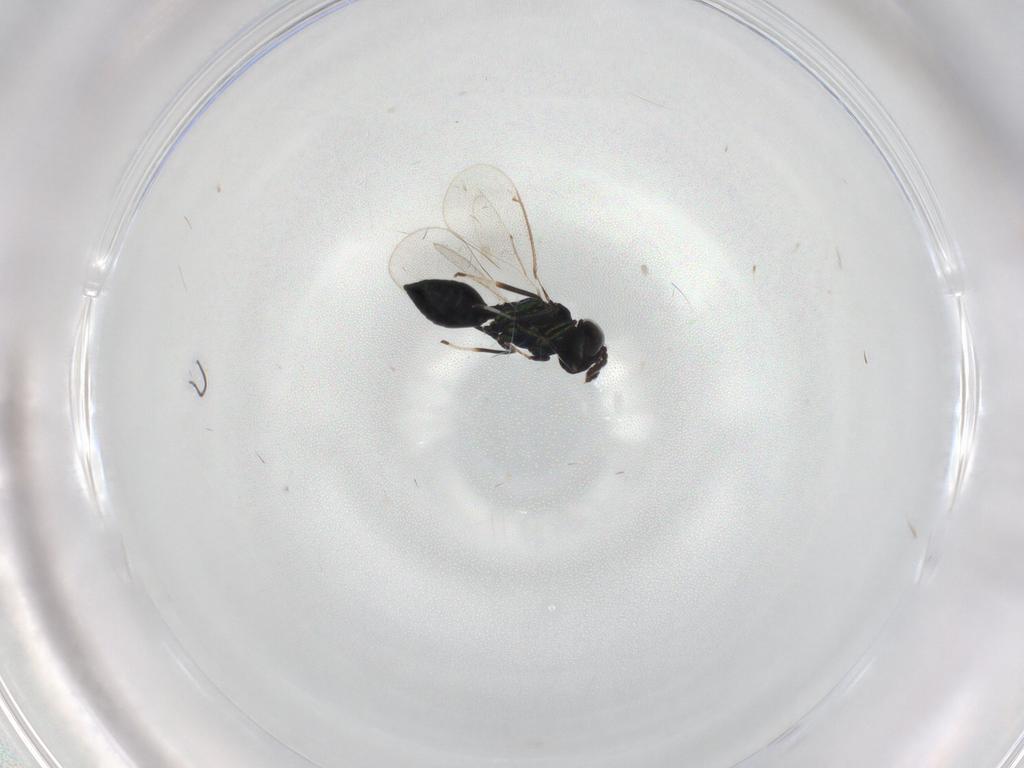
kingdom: Animalia
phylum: Arthropoda
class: Insecta
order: Hymenoptera
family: Eulophidae
